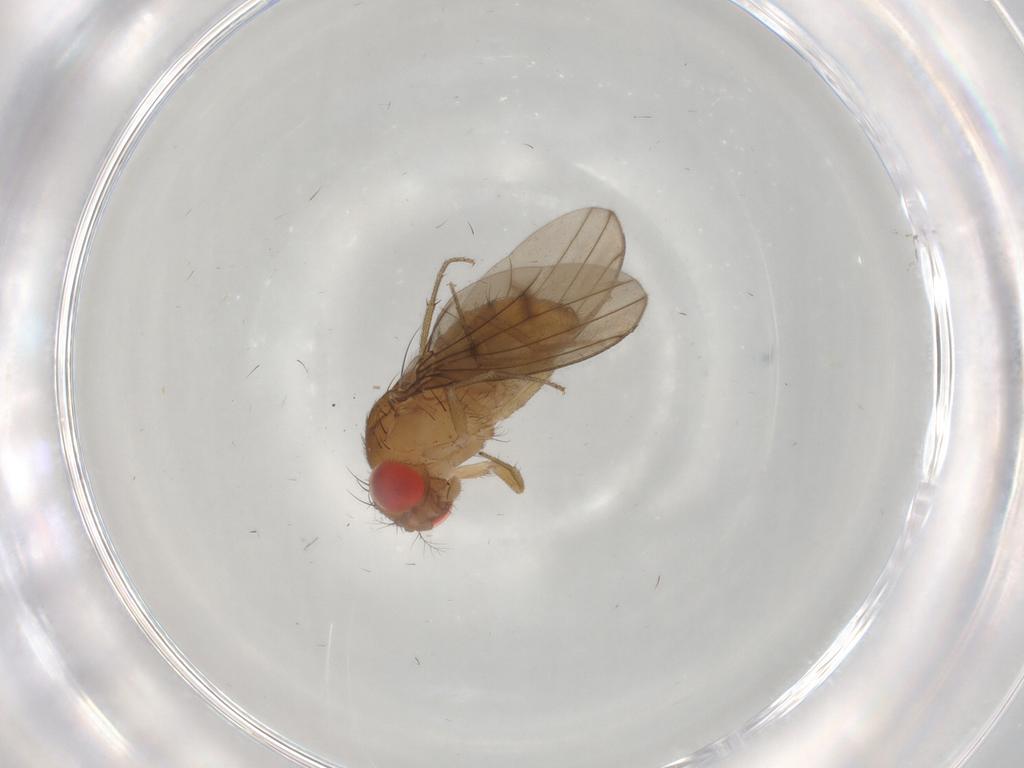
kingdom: Animalia
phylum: Arthropoda
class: Insecta
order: Diptera
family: Drosophilidae
